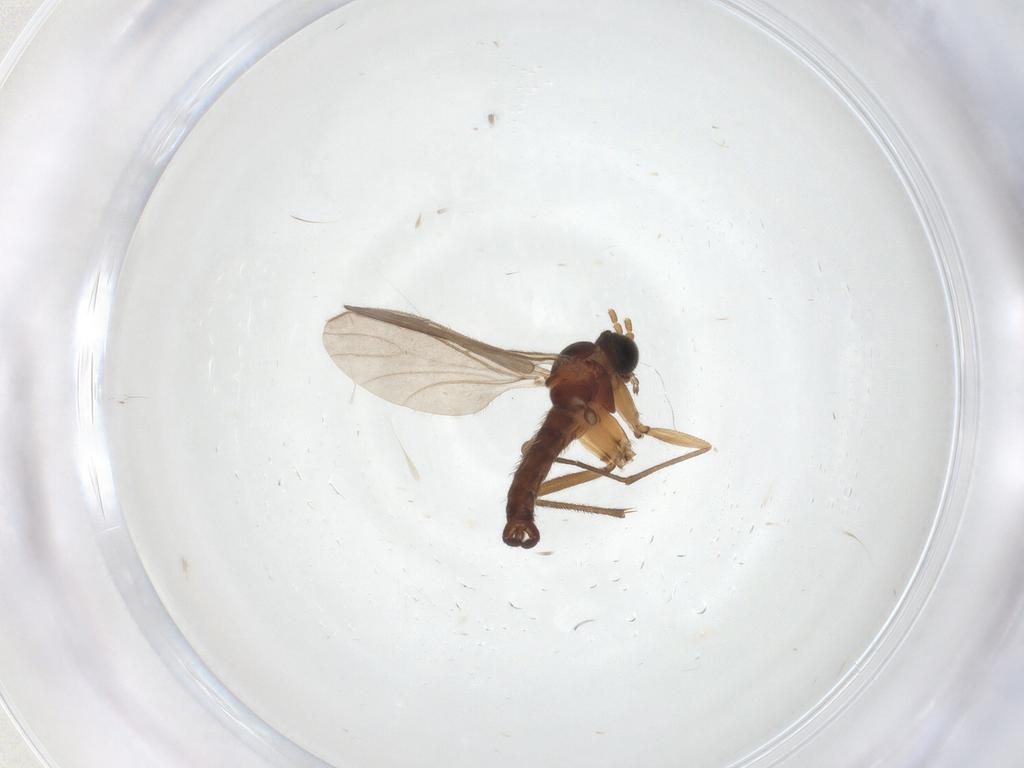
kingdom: Animalia
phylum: Arthropoda
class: Insecta
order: Diptera
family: Sciaridae
